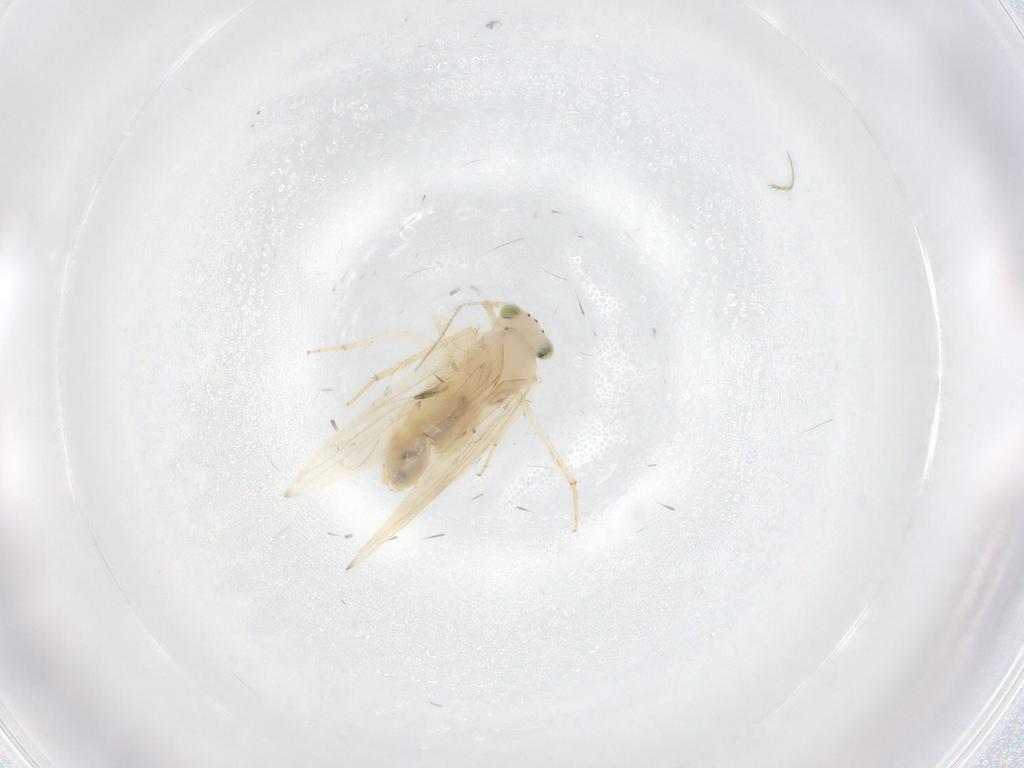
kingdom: Animalia
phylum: Arthropoda
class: Insecta
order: Psocodea
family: Lepidopsocidae
